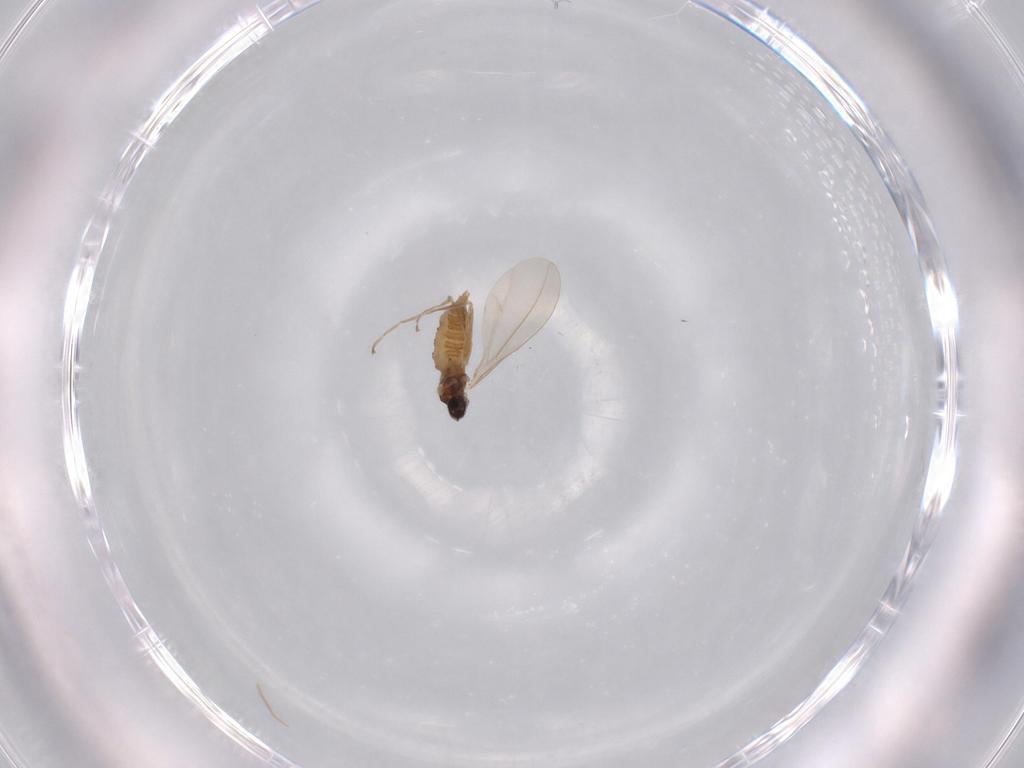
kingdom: Animalia
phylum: Arthropoda
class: Insecta
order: Diptera
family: Cecidomyiidae
